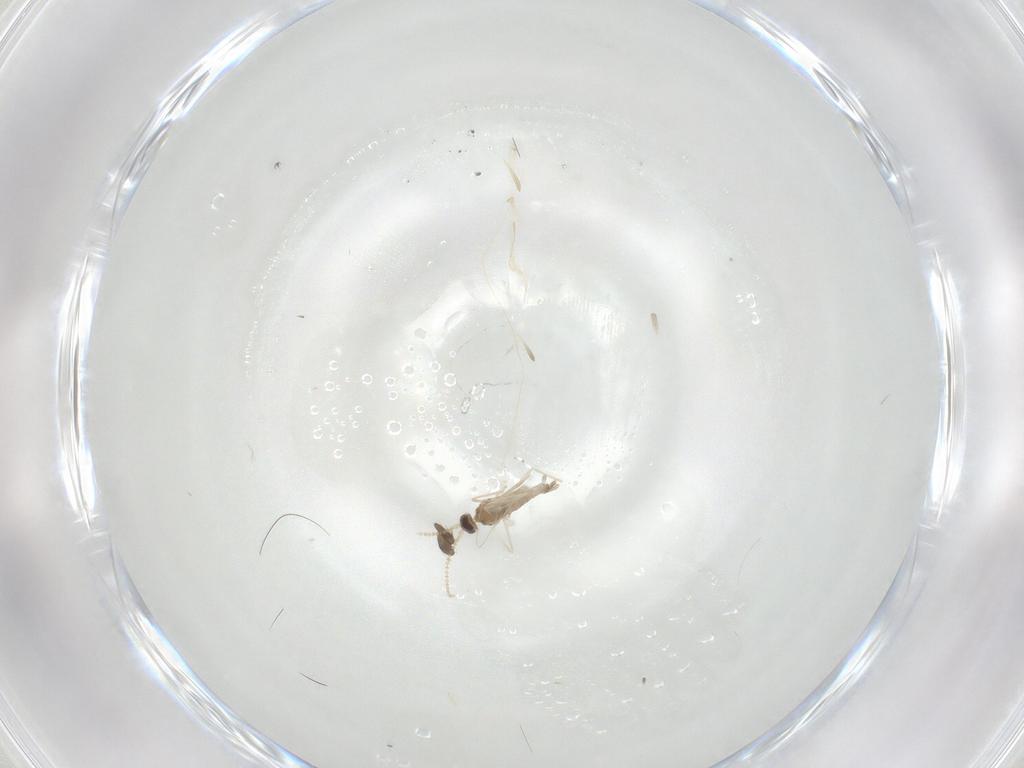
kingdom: Animalia
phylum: Arthropoda
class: Insecta
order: Diptera
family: Cecidomyiidae
